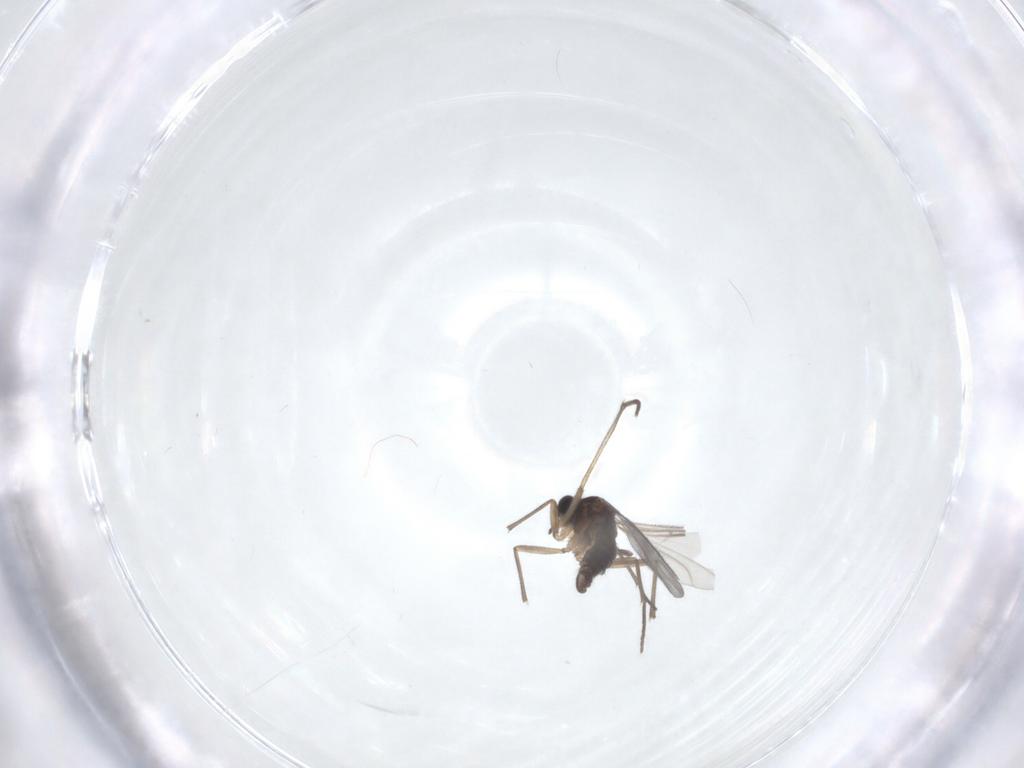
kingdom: Animalia
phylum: Arthropoda
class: Insecta
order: Diptera
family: Sciaridae
